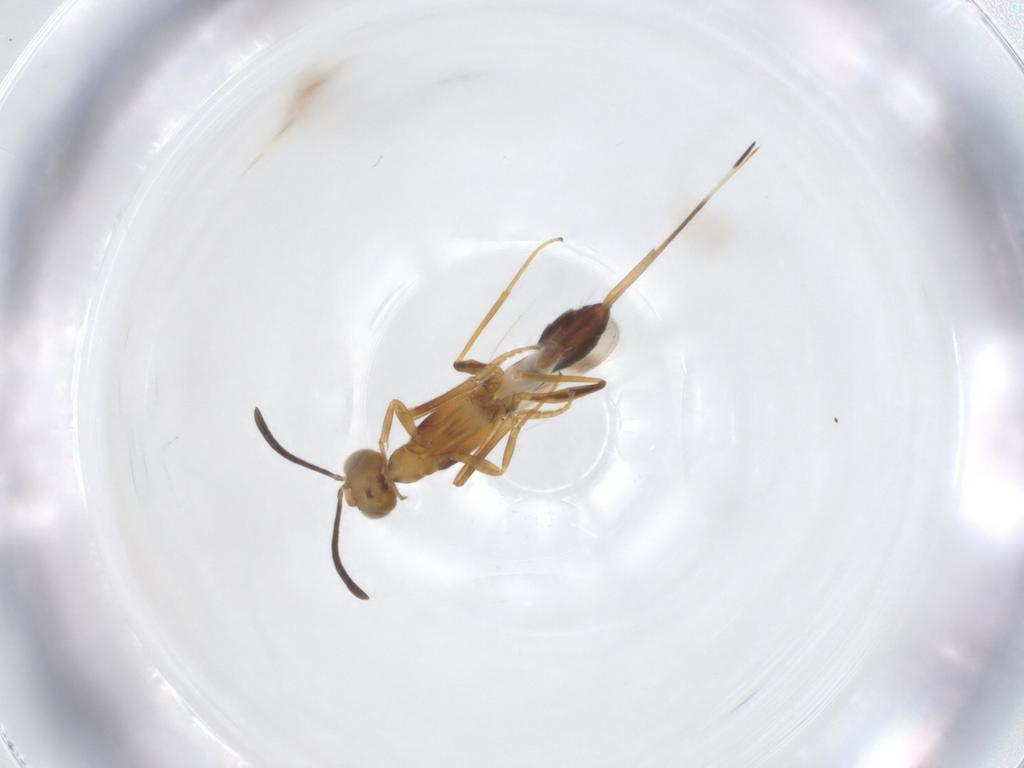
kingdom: Animalia
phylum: Arthropoda
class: Insecta
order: Hymenoptera
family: Eupelmidae
